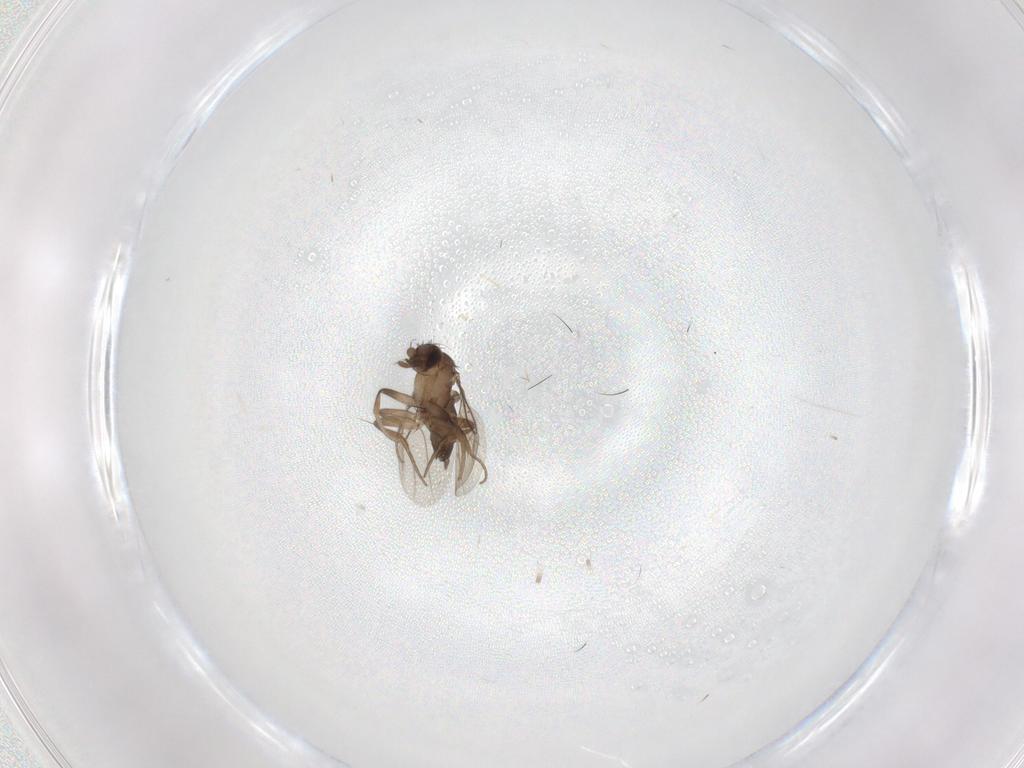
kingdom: Animalia
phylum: Arthropoda
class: Insecta
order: Diptera
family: Phoridae
